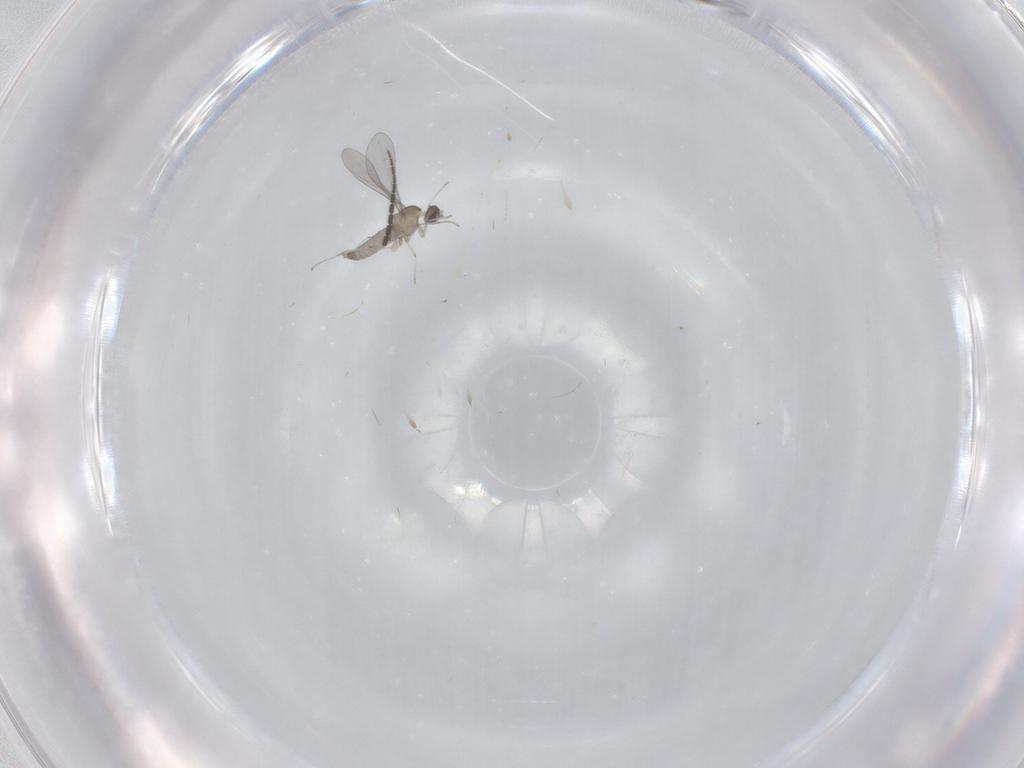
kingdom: Animalia
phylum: Arthropoda
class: Insecta
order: Diptera
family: Sciaridae
